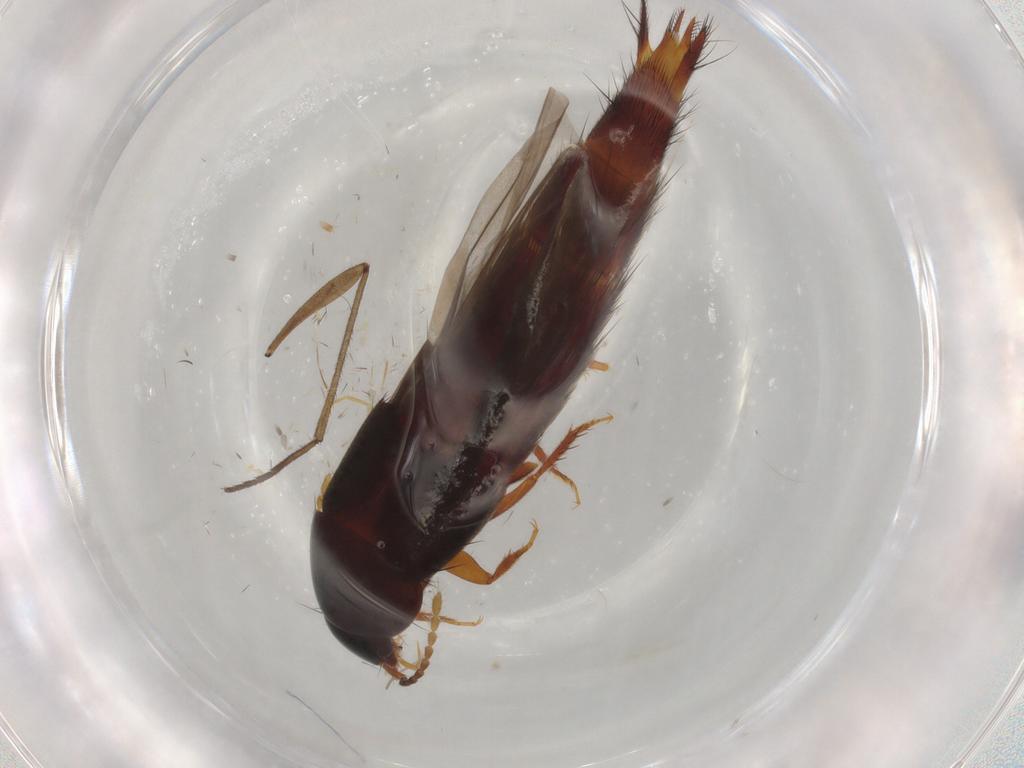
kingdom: Animalia
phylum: Arthropoda
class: Insecta
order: Coleoptera
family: Staphylinidae
